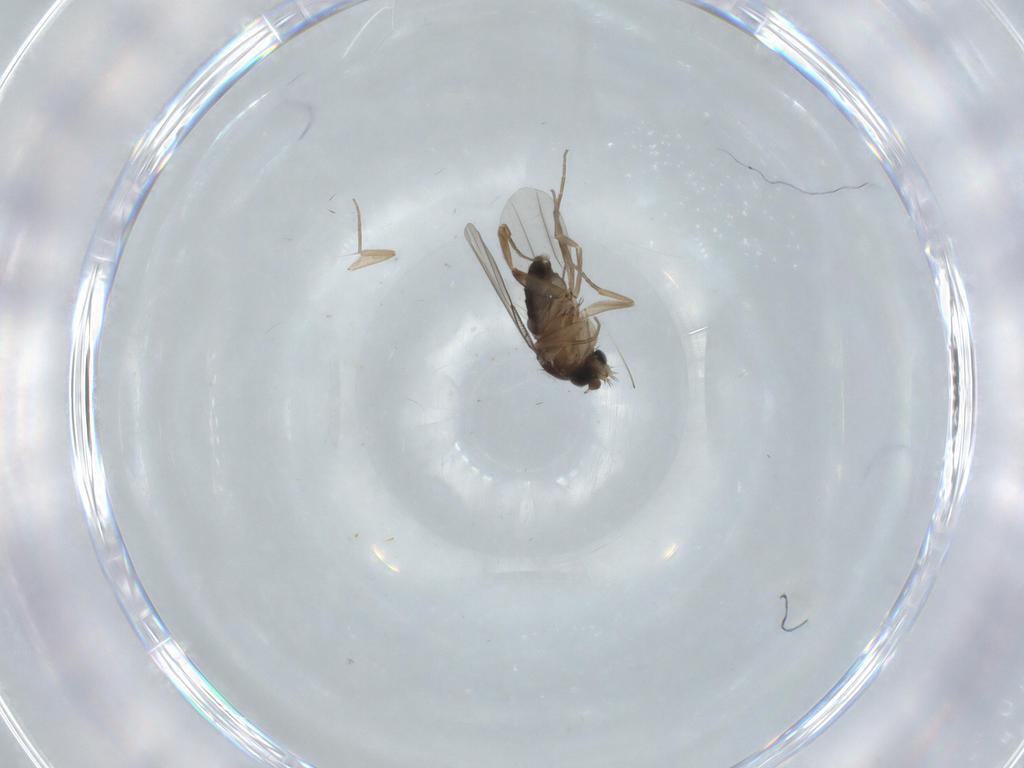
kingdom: Animalia
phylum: Arthropoda
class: Insecta
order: Diptera
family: Phoridae
